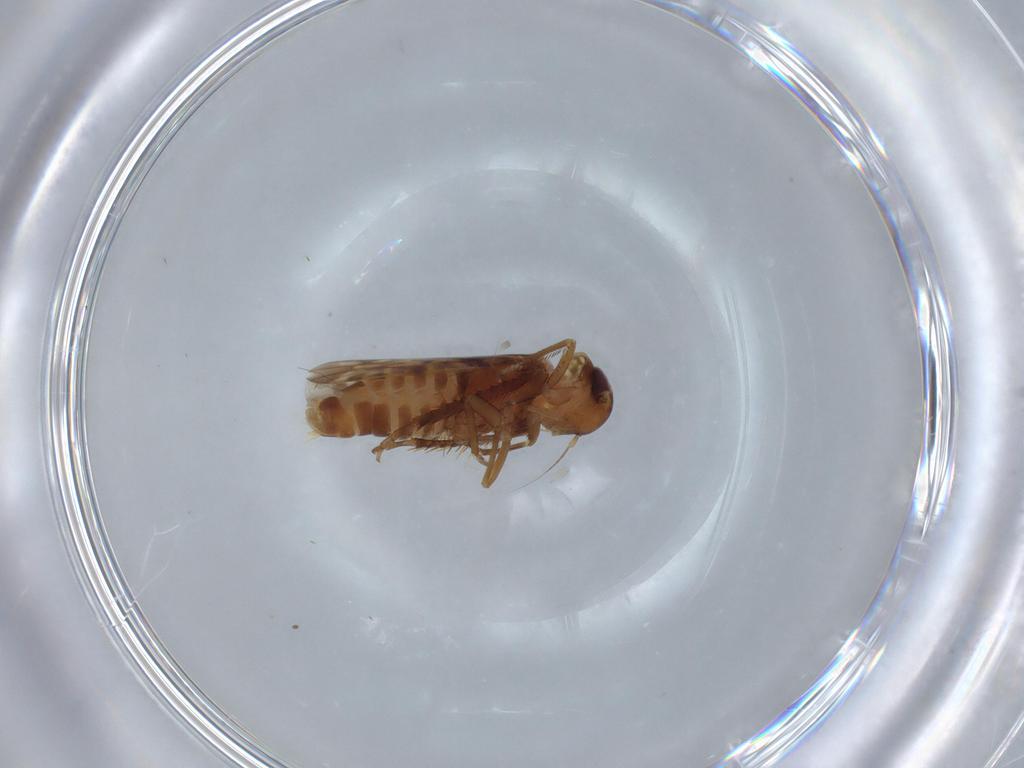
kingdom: Animalia
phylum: Arthropoda
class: Insecta
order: Hemiptera
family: Cicadellidae
